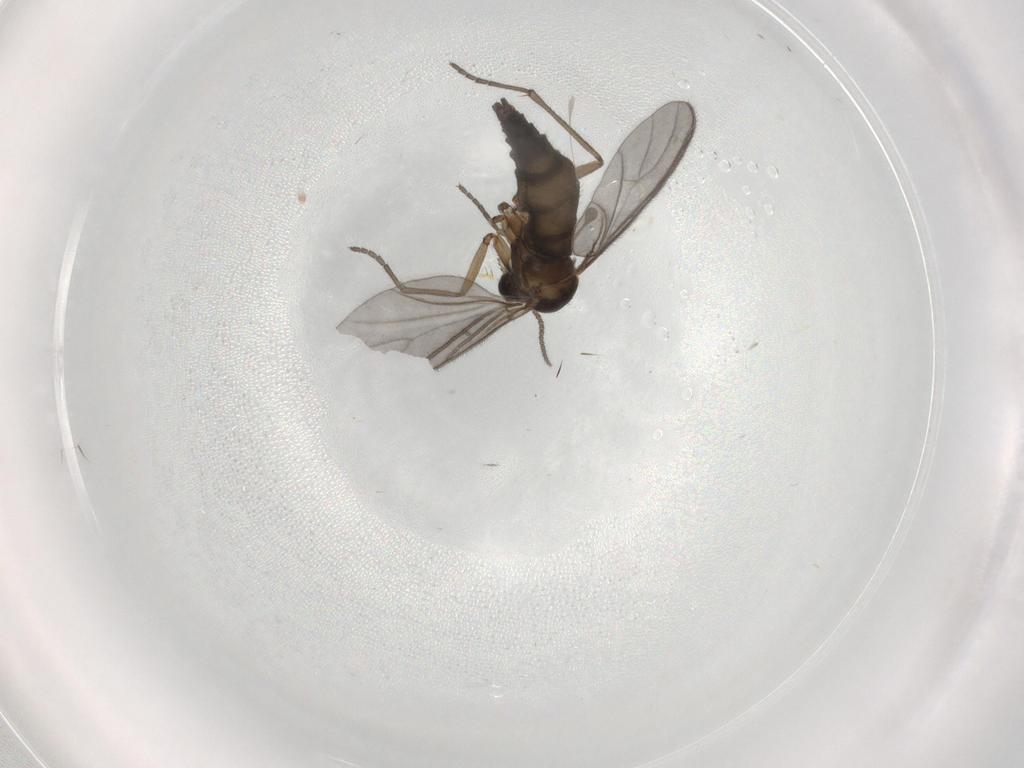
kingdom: Animalia
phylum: Arthropoda
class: Insecta
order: Diptera
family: Sciaridae
